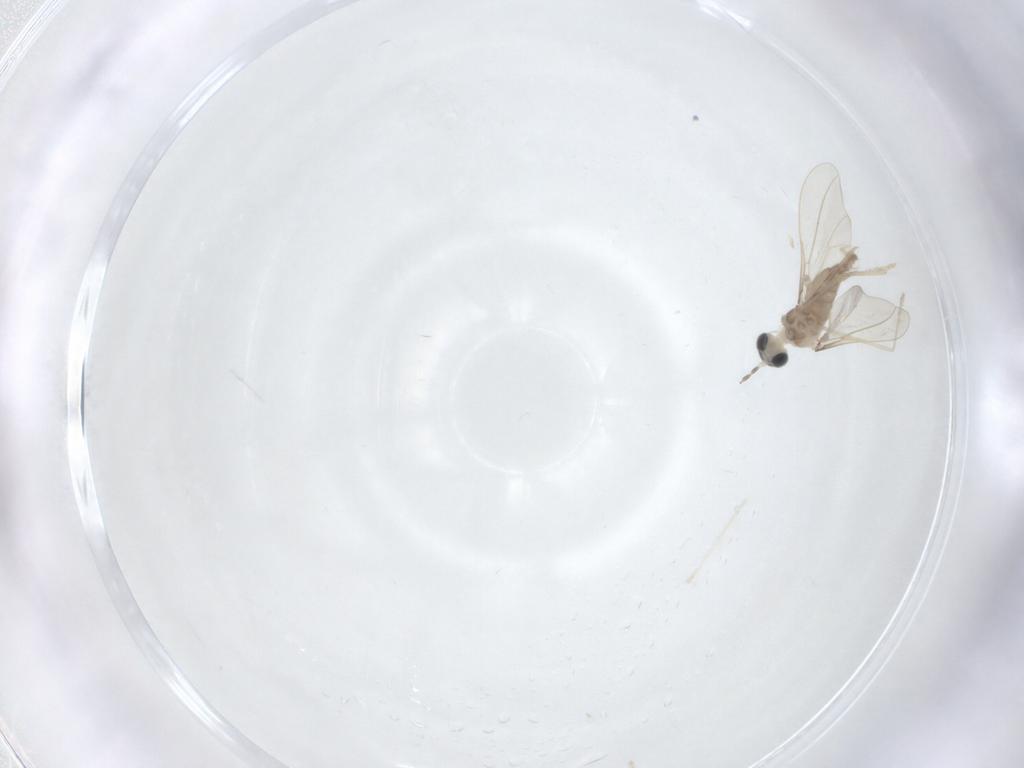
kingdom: Animalia
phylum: Arthropoda
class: Insecta
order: Diptera
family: Cecidomyiidae
